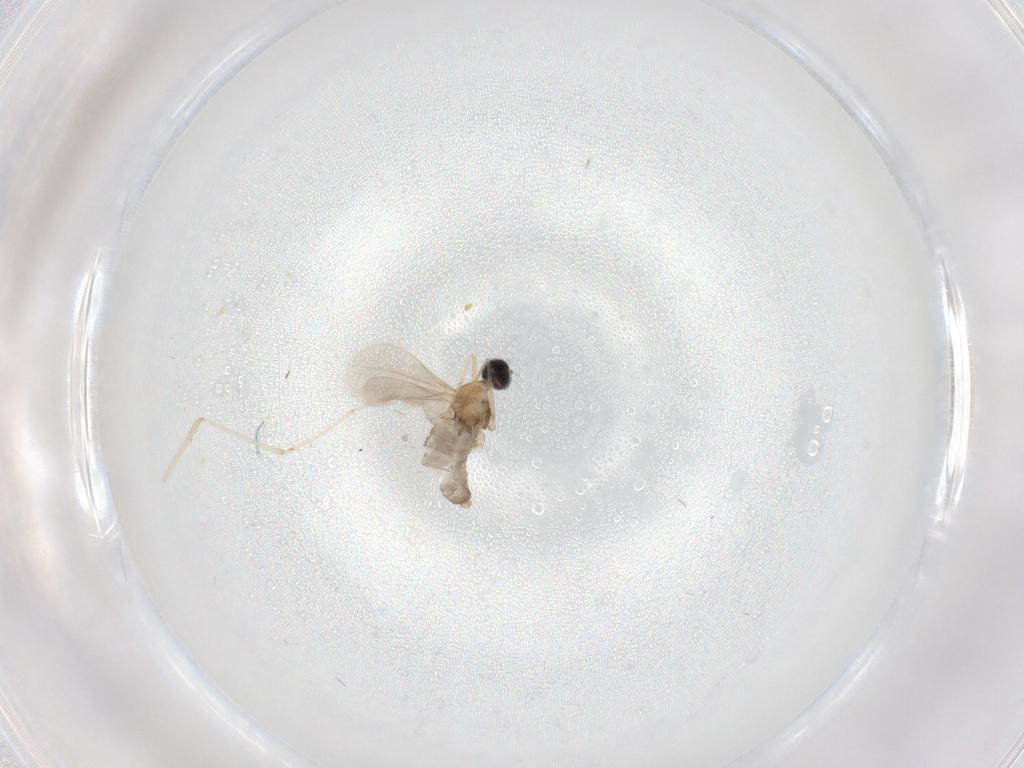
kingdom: Animalia
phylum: Arthropoda
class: Insecta
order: Diptera
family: Cecidomyiidae
